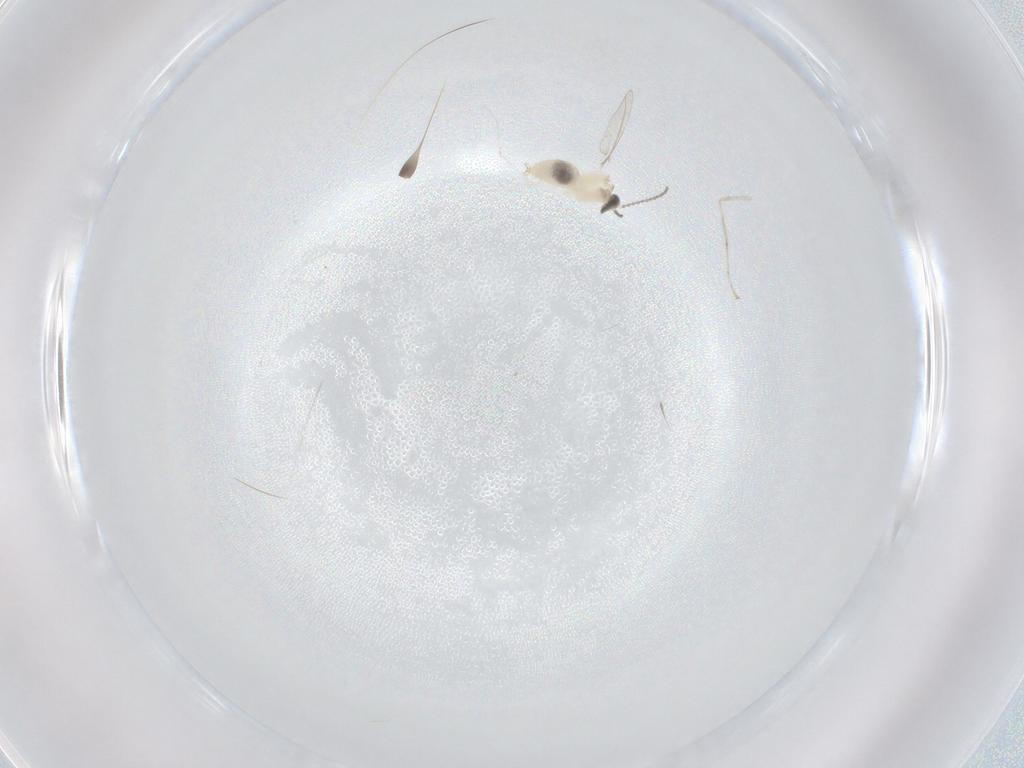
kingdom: Animalia
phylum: Arthropoda
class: Insecta
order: Diptera
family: Cecidomyiidae
